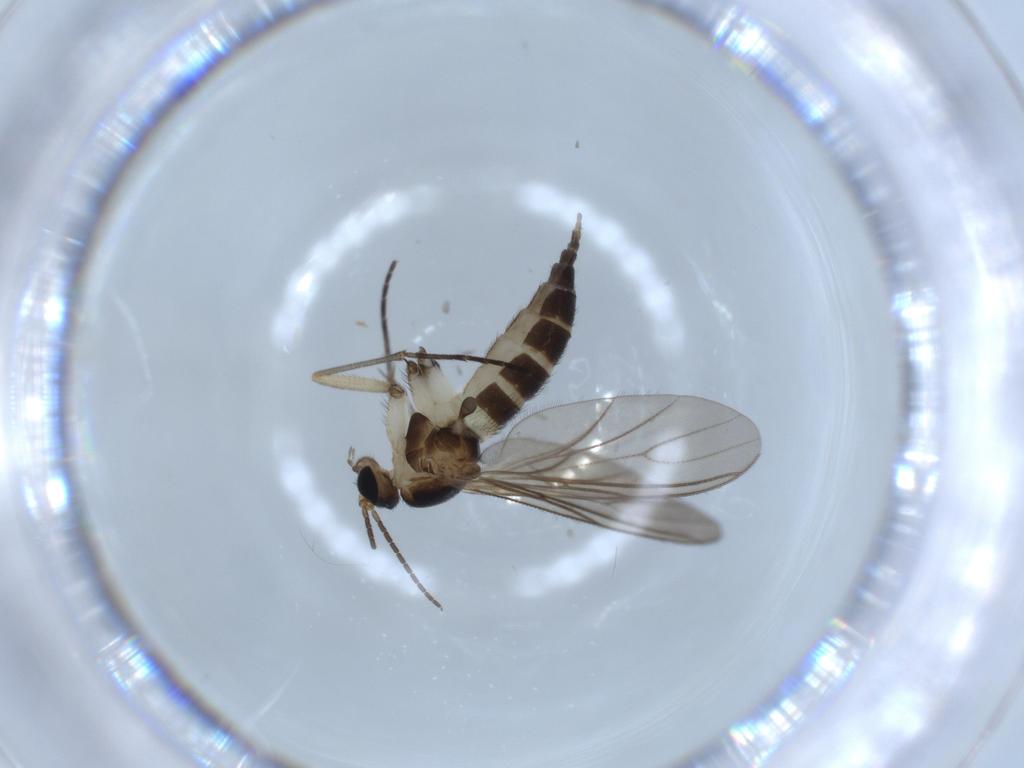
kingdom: Animalia
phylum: Arthropoda
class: Insecta
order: Diptera
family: Sciaridae
